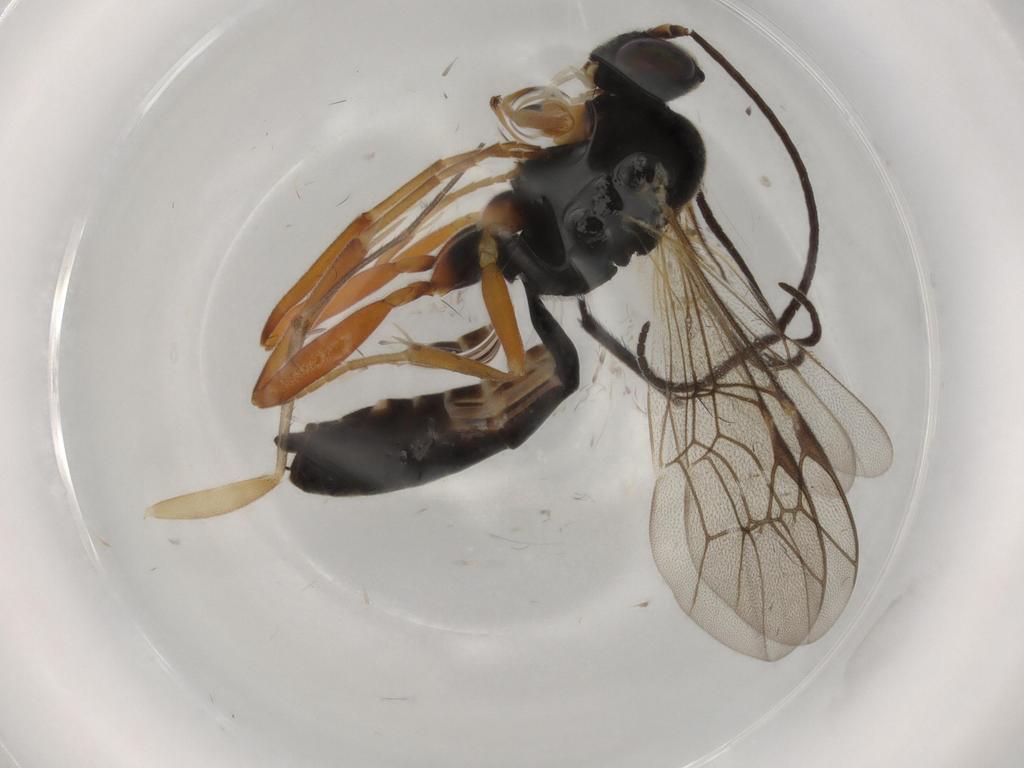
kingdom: Animalia
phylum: Arthropoda
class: Insecta
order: Hymenoptera
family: Ichneumonidae
